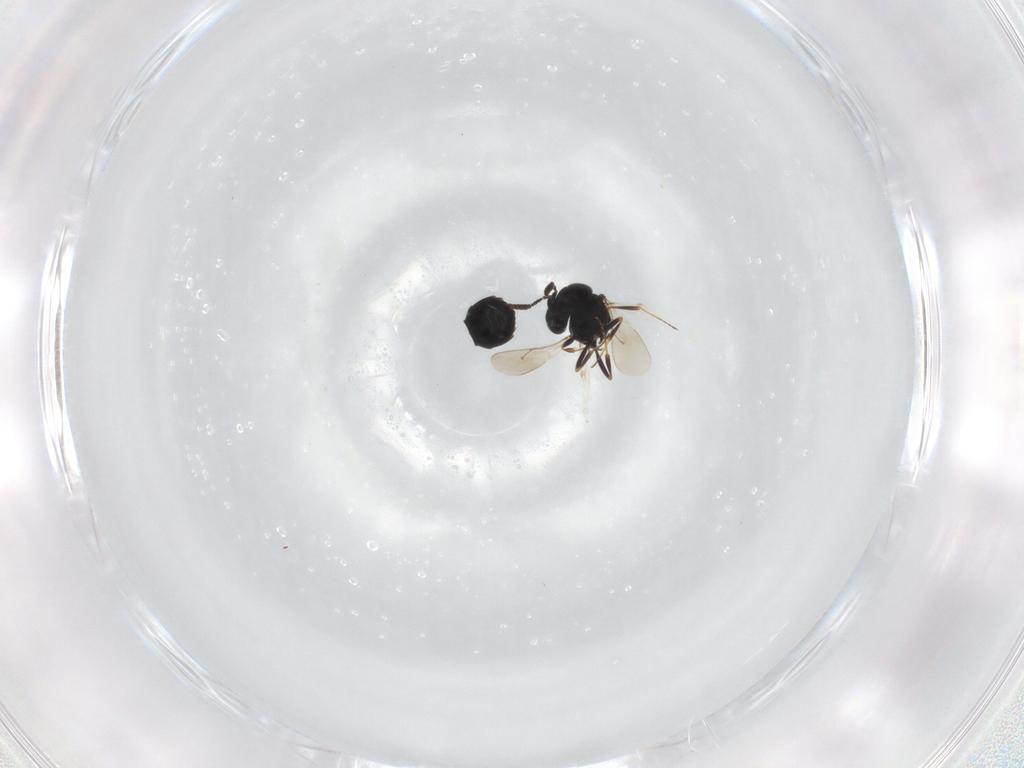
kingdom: Animalia
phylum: Arthropoda
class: Insecta
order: Hymenoptera
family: Scelionidae
